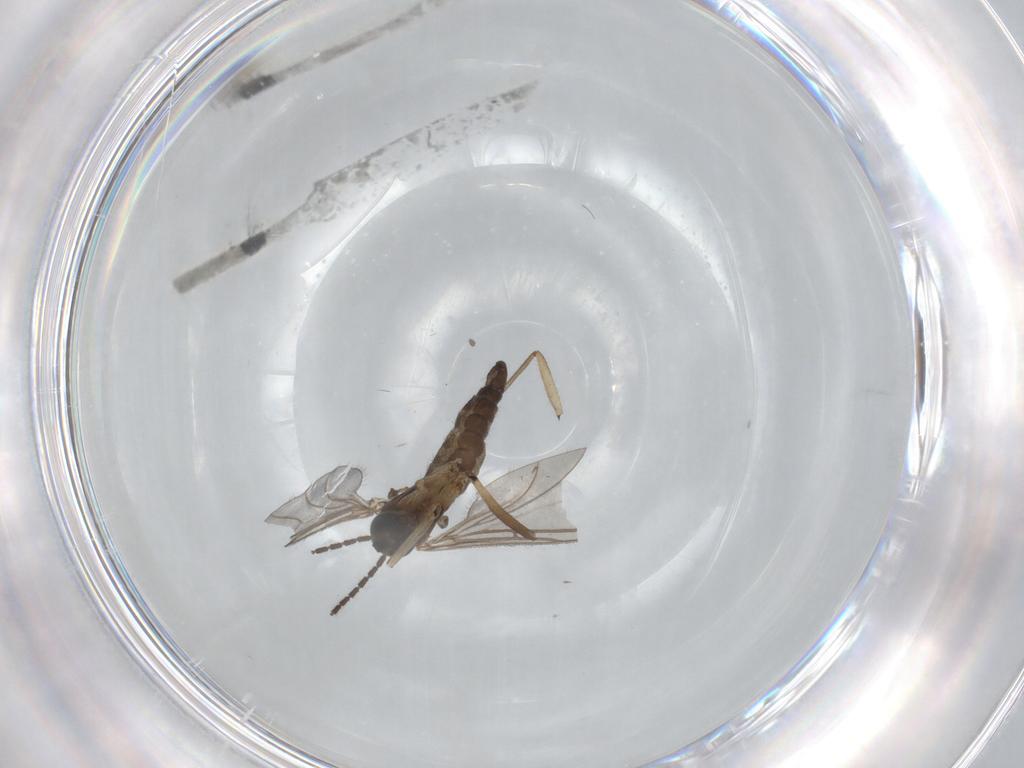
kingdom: Animalia
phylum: Arthropoda
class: Insecta
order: Diptera
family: Sciaridae
